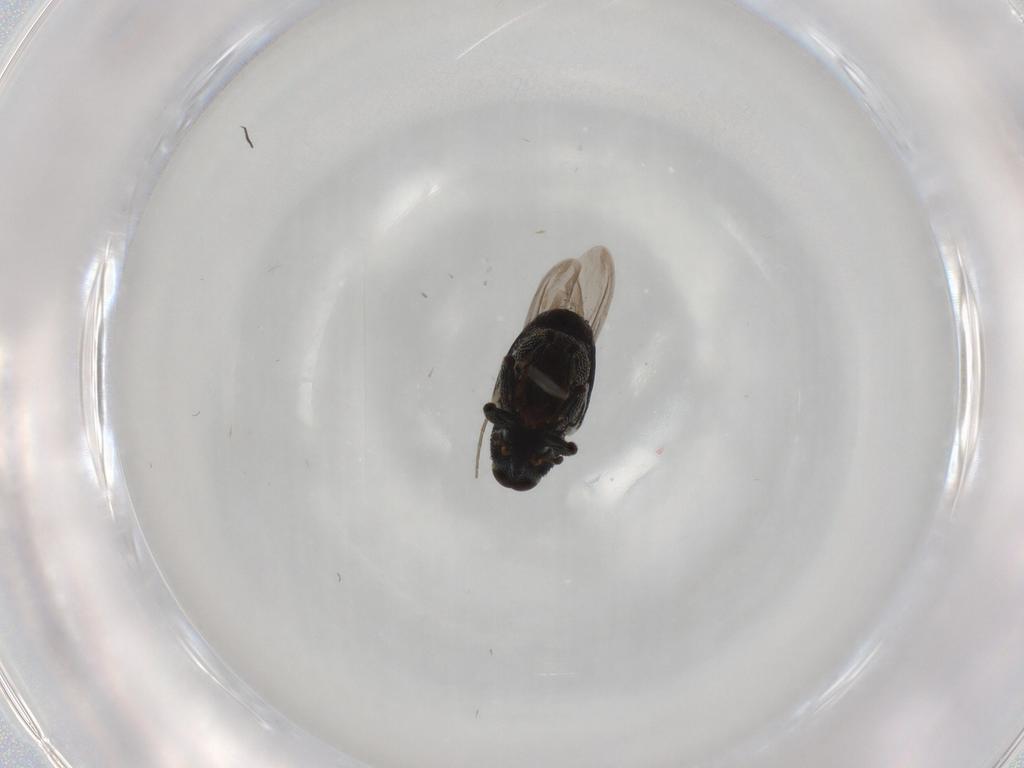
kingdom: Animalia
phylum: Arthropoda
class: Insecta
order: Coleoptera
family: Curculionidae
